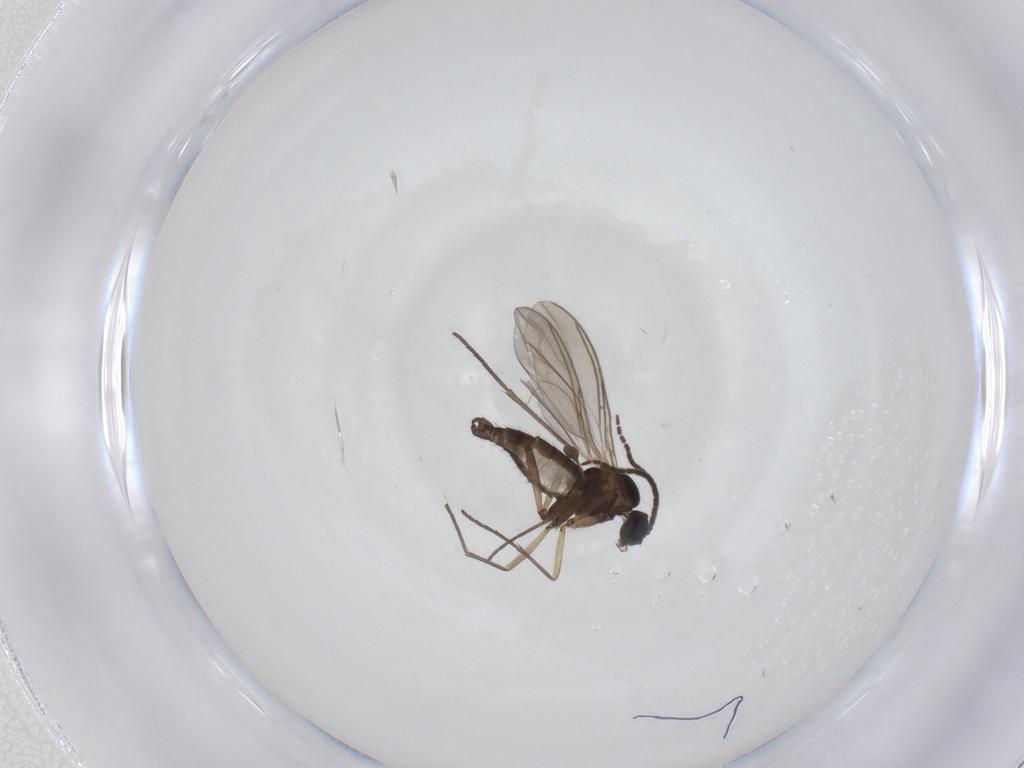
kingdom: Animalia
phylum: Arthropoda
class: Insecta
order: Diptera
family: Sciaridae
